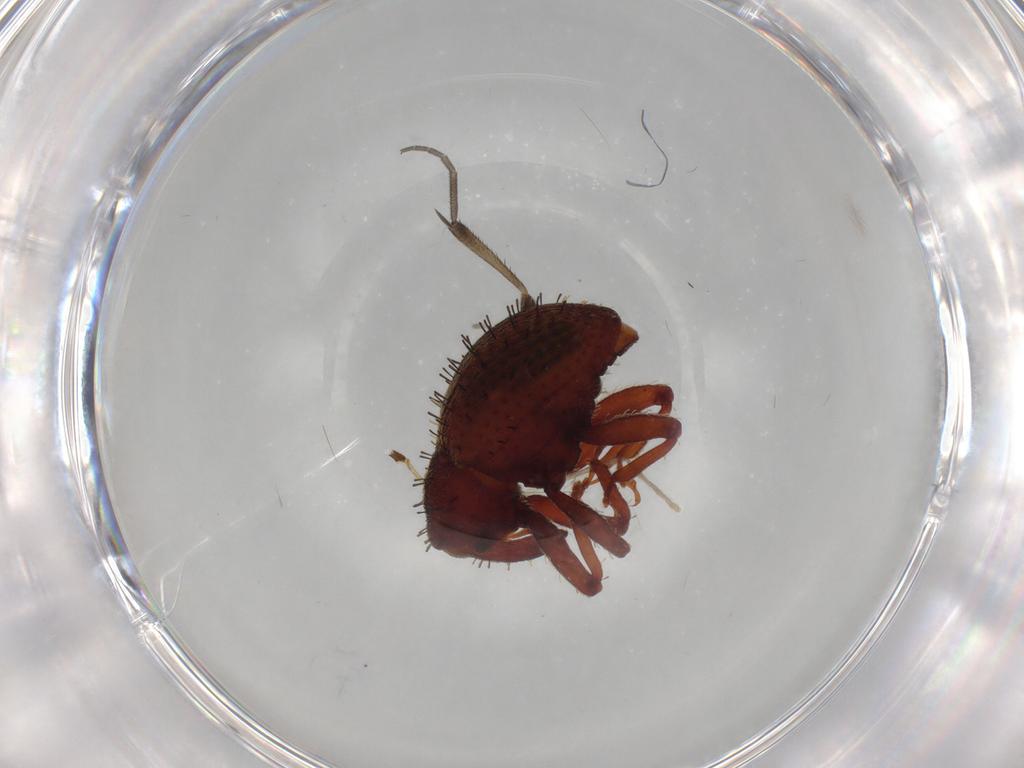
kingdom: Animalia
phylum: Arthropoda
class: Insecta
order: Coleoptera
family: Curculionidae
